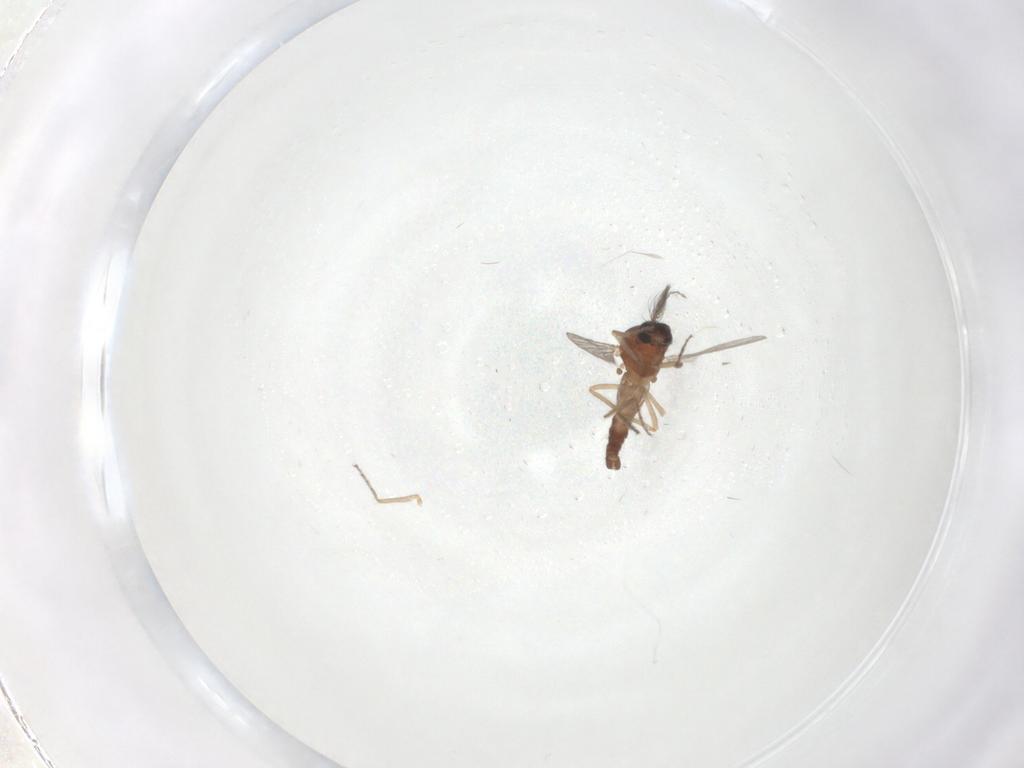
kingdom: Animalia
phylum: Arthropoda
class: Insecta
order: Diptera
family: Ceratopogonidae
